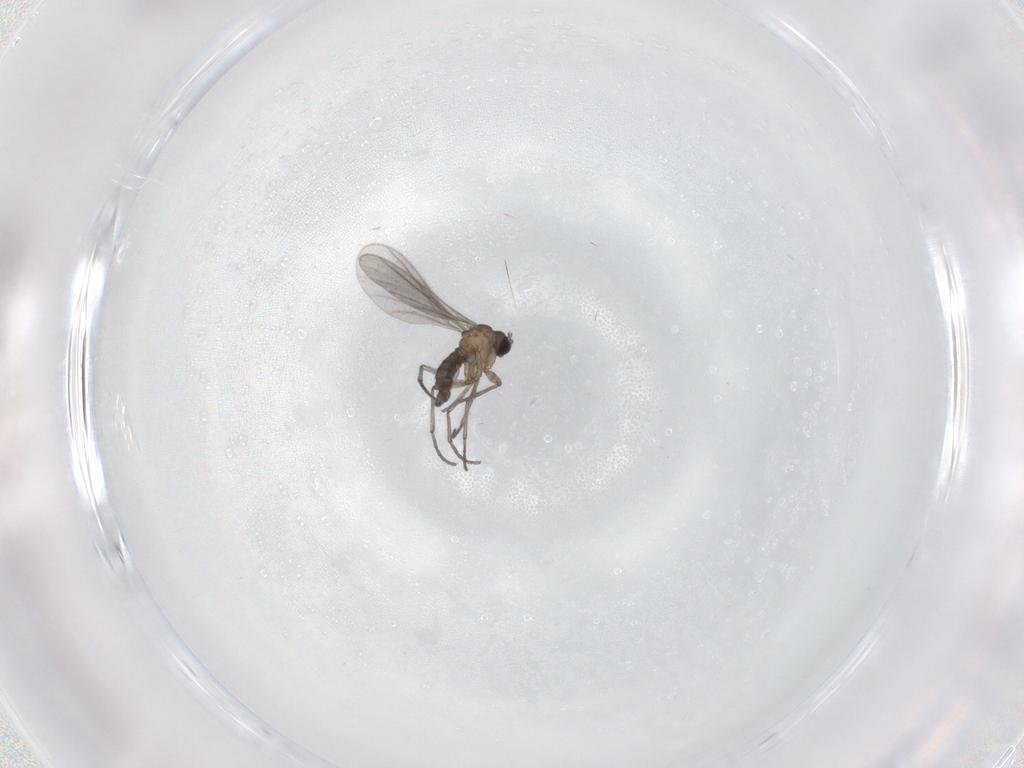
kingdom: Animalia
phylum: Arthropoda
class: Insecta
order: Diptera
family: Sciaridae
